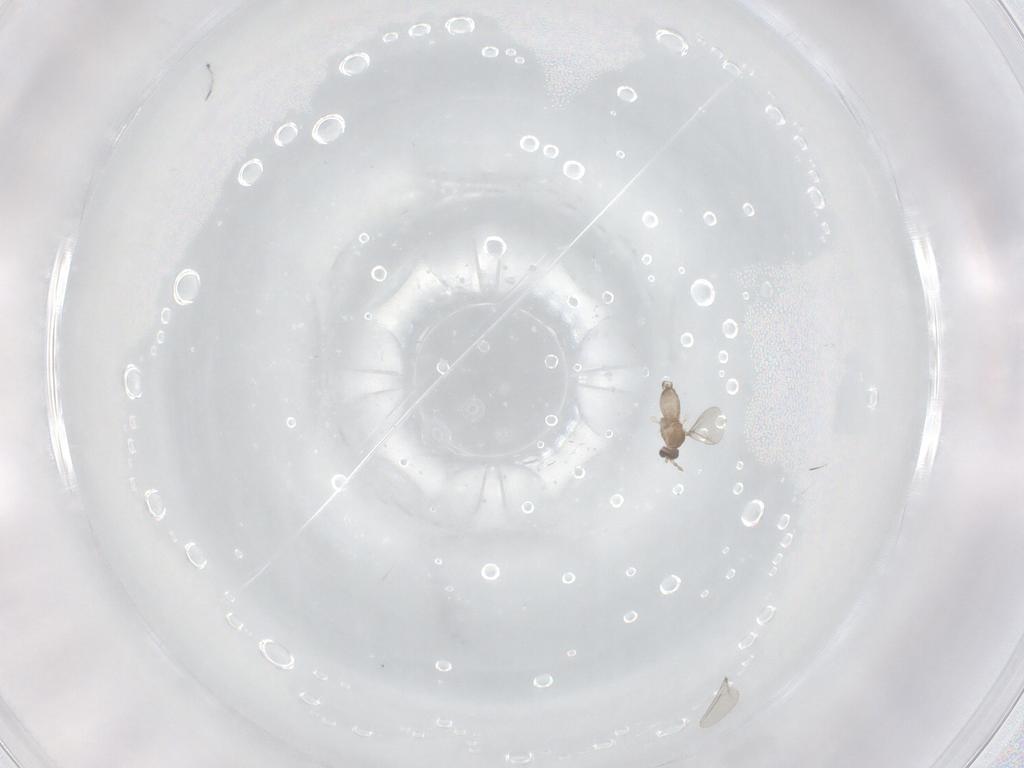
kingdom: Animalia
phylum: Arthropoda
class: Insecta
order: Diptera
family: Cecidomyiidae
